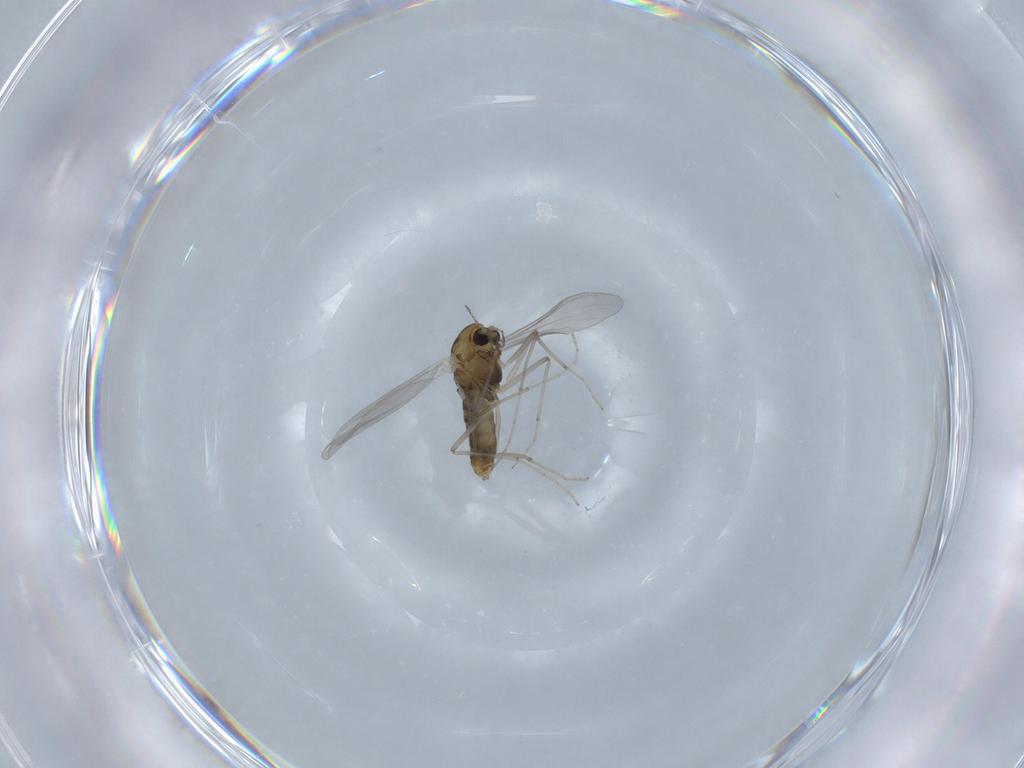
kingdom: Animalia
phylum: Arthropoda
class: Insecta
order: Diptera
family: Chironomidae
